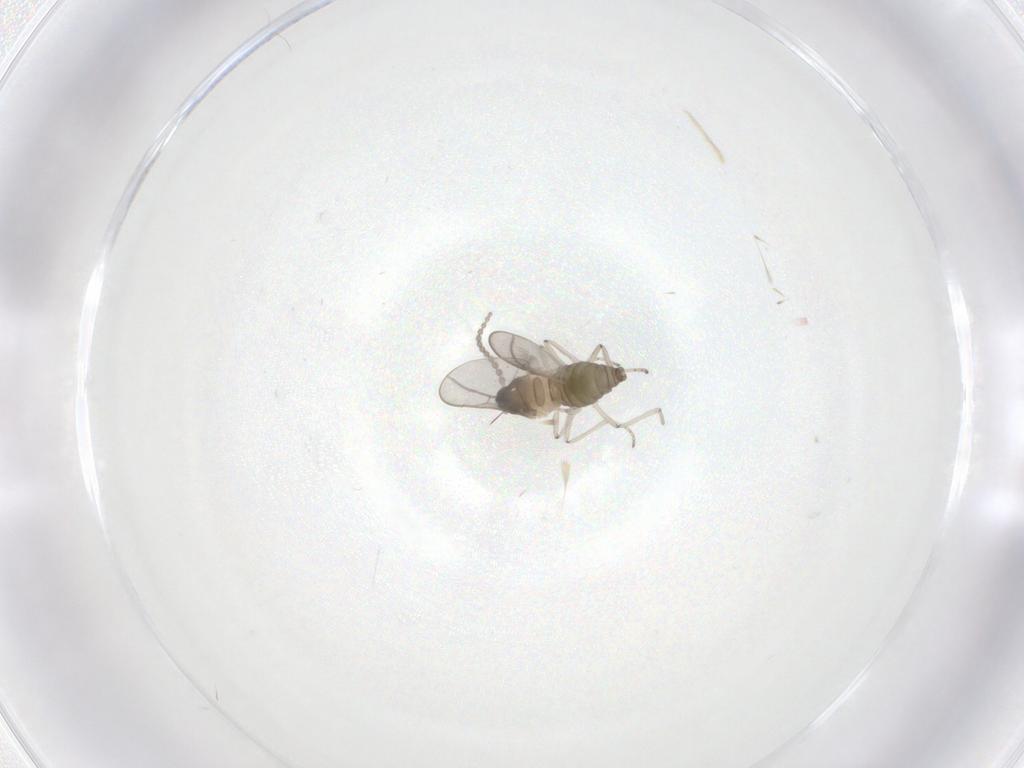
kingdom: Animalia
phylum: Arthropoda
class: Insecta
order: Diptera
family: Cecidomyiidae
